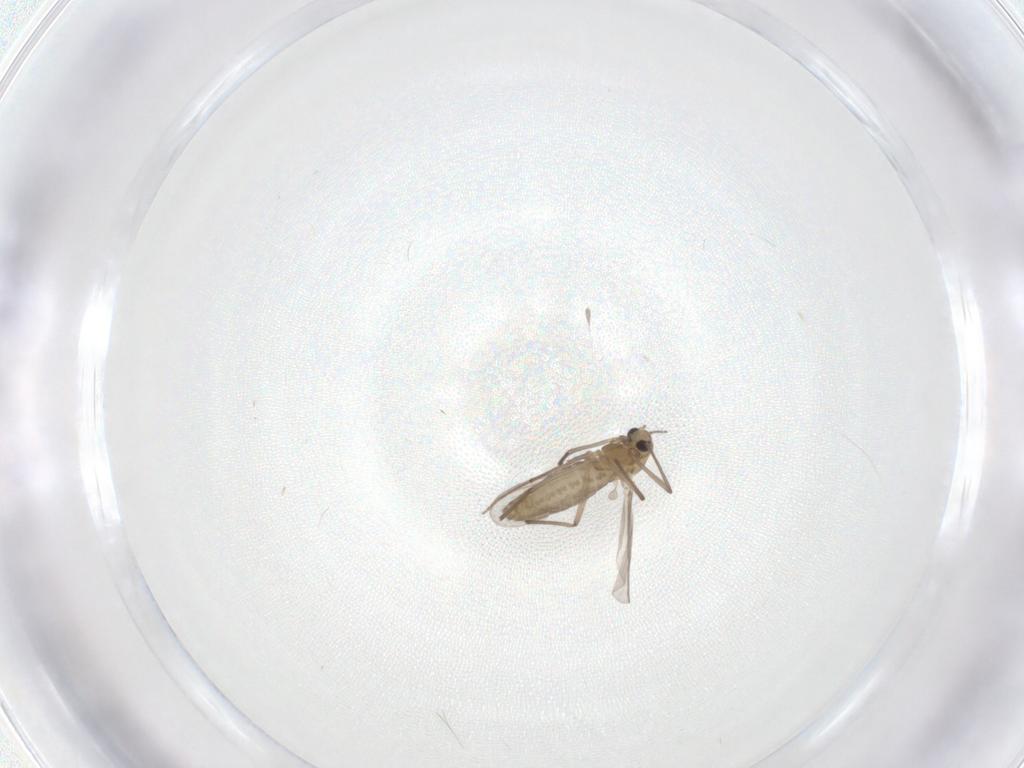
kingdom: Animalia
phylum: Arthropoda
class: Insecta
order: Diptera
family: Chironomidae
